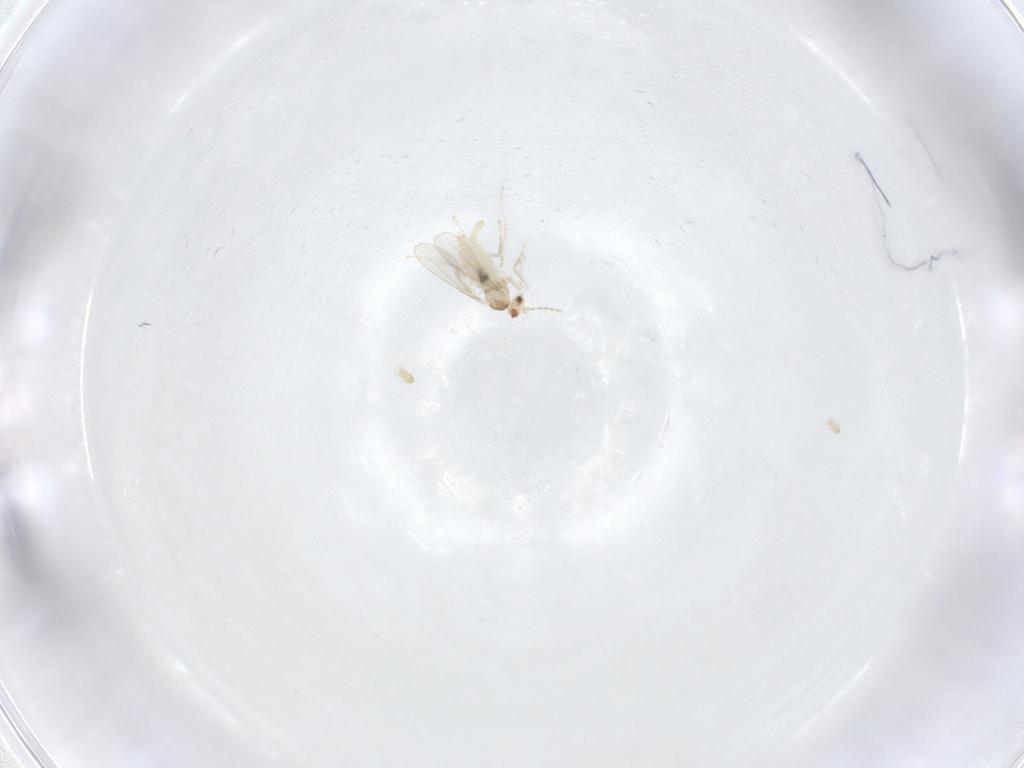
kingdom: Animalia
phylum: Arthropoda
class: Insecta
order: Diptera
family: Cecidomyiidae
